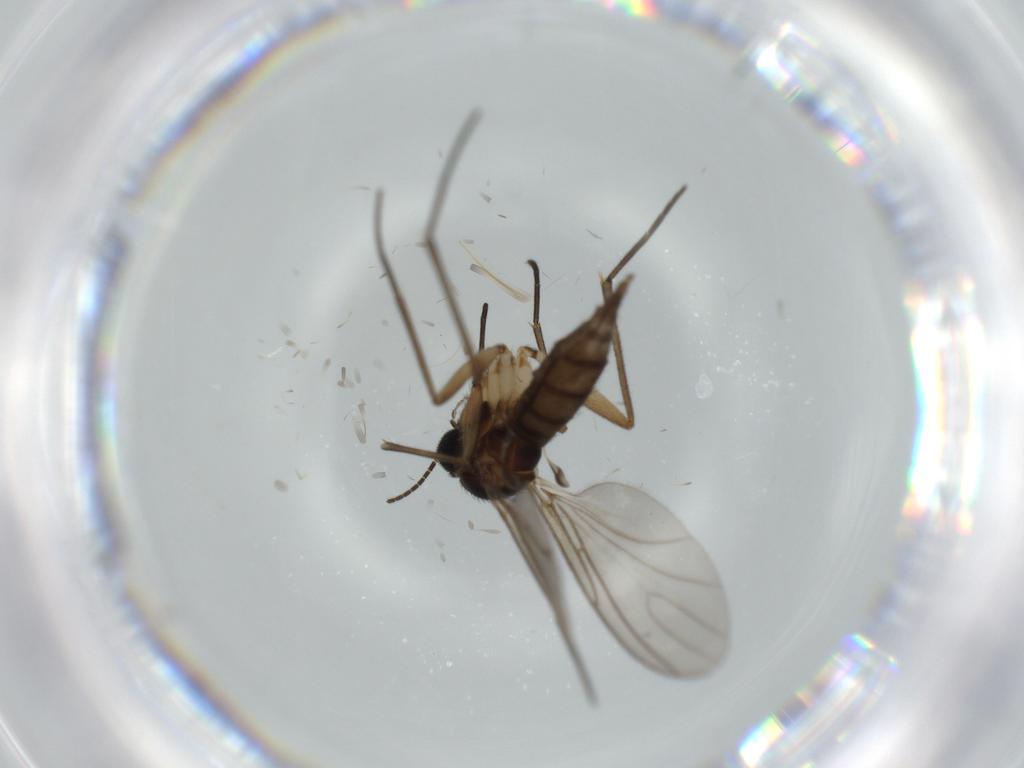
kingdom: Animalia
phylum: Arthropoda
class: Insecta
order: Diptera
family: Sciaridae
